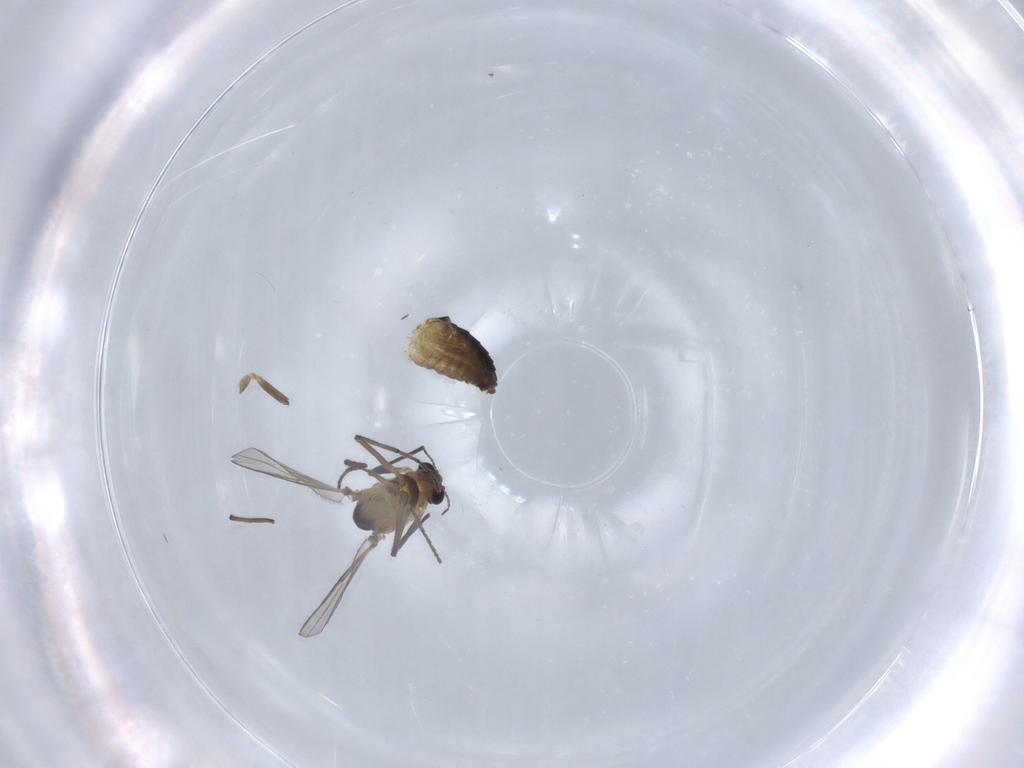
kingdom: Animalia
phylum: Arthropoda
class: Insecta
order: Diptera
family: Chironomidae
